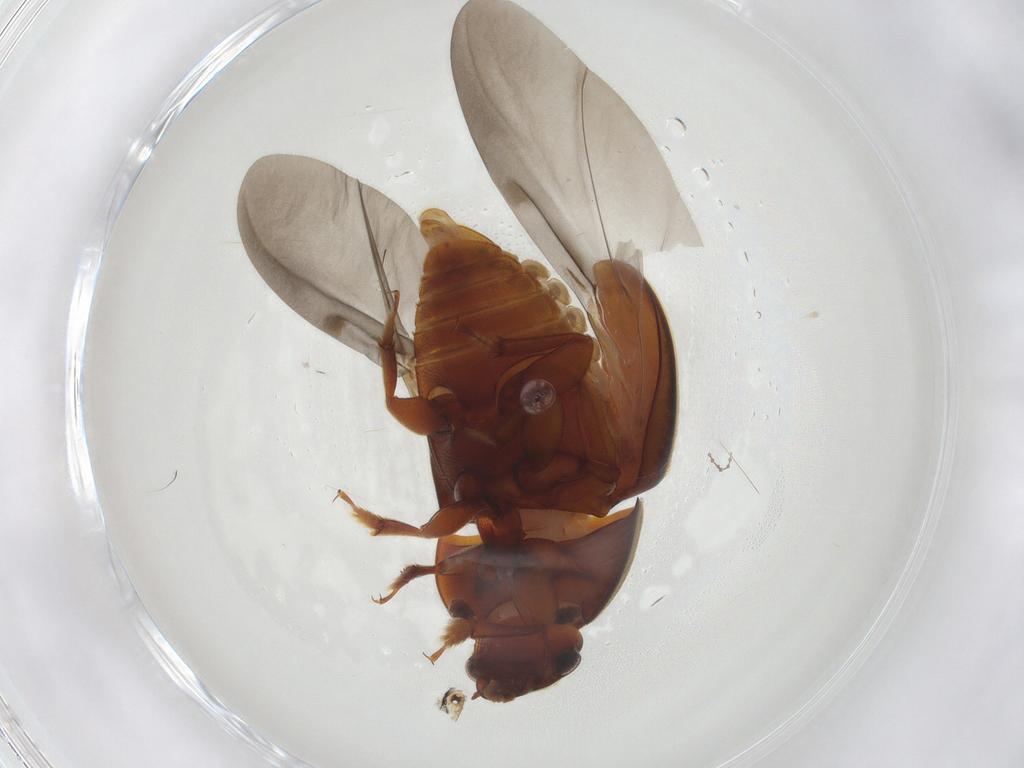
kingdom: Animalia
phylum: Arthropoda
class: Insecta
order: Coleoptera
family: Nitidulidae
